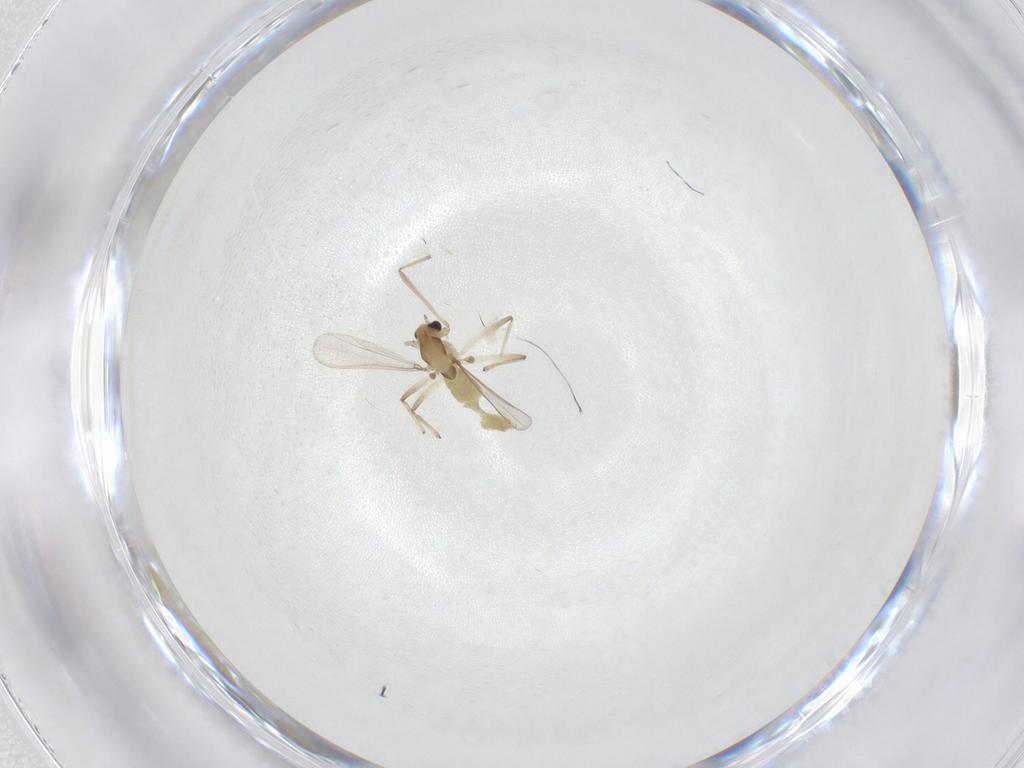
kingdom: Animalia
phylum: Arthropoda
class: Insecta
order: Diptera
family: Chironomidae
